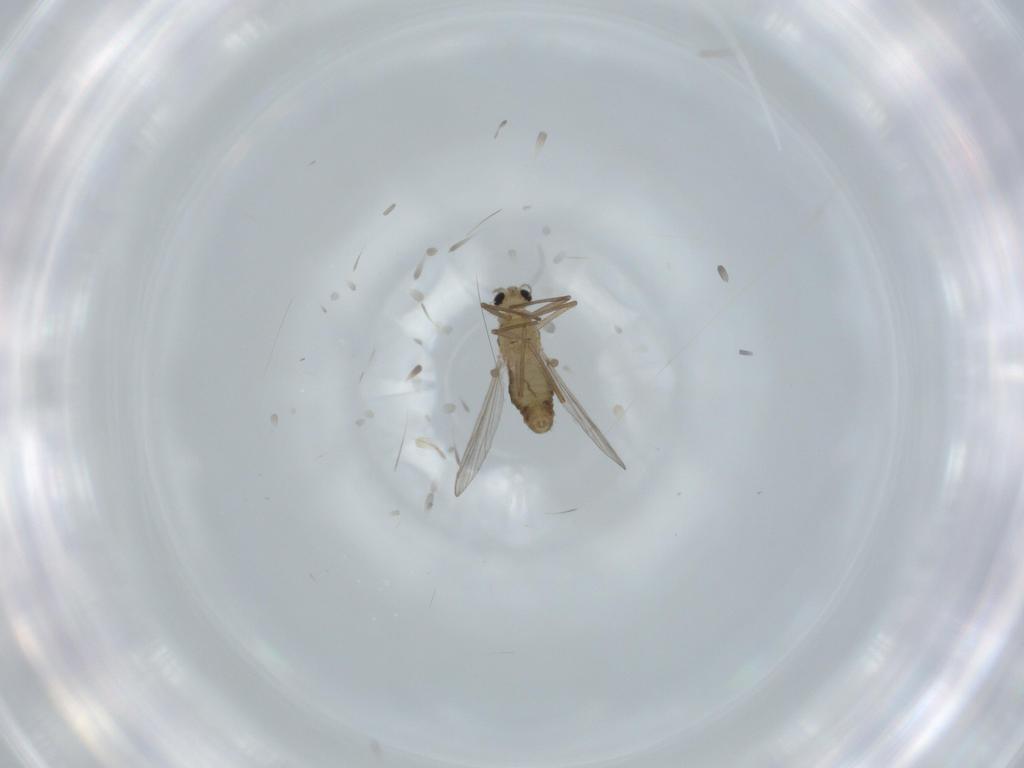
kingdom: Animalia
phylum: Arthropoda
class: Insecta
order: Diptera
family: Chironomidae
